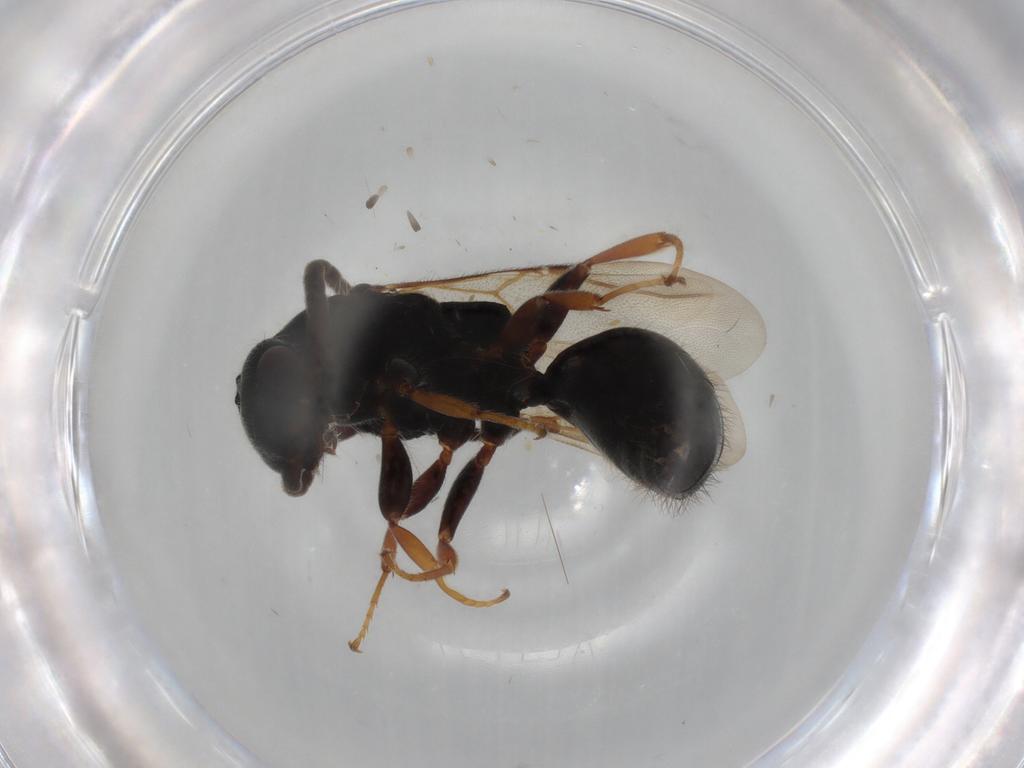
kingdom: Animalia
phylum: Arthropoda
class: Insecta
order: Hymenoptera
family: Bethylidae
